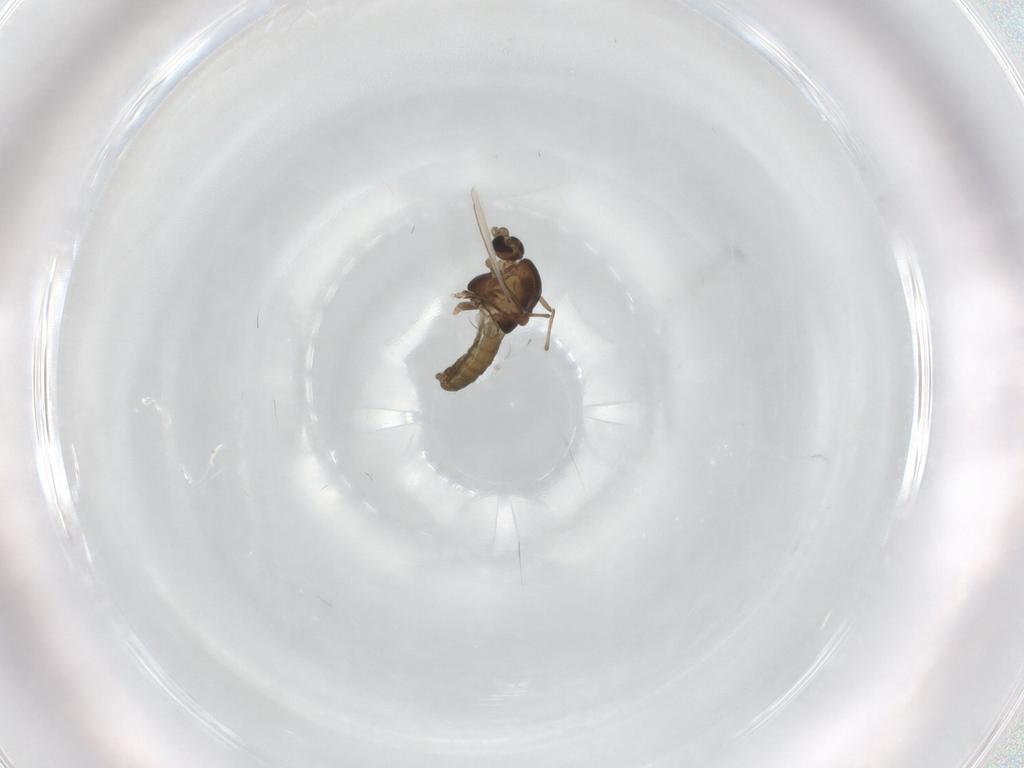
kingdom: Animalia
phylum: Arthropoda
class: Insecta
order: Diptera
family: Chironomidae
